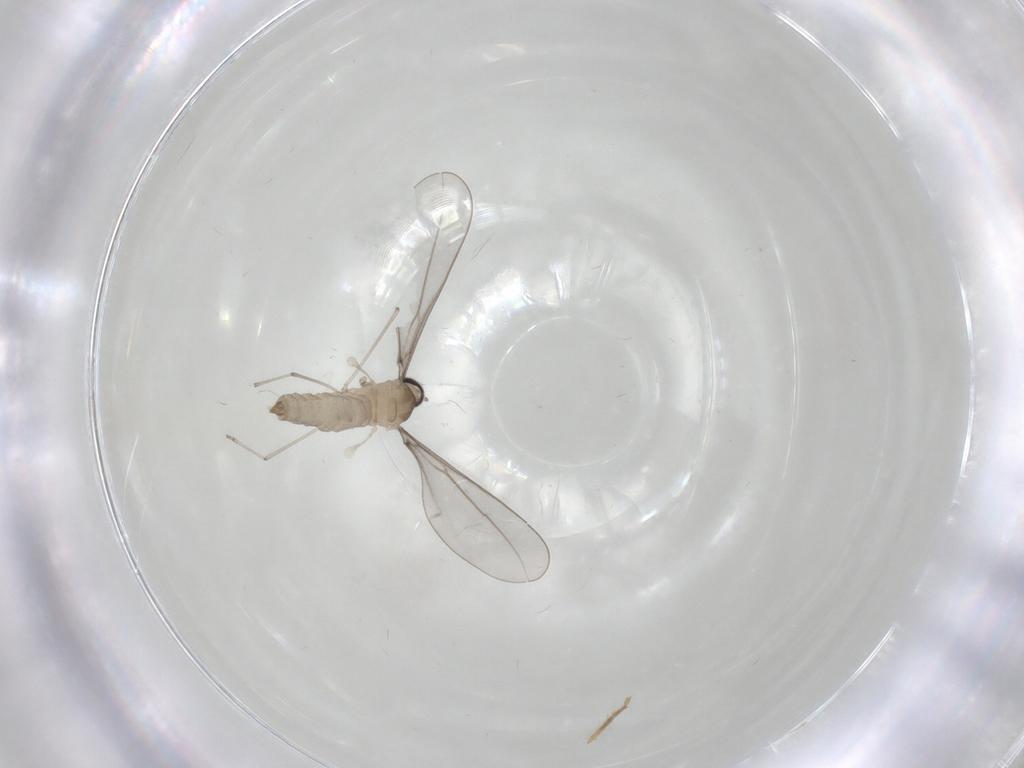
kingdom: Animalia
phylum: Arthropoda
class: Insecta
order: Diptera
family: Chironomidae
